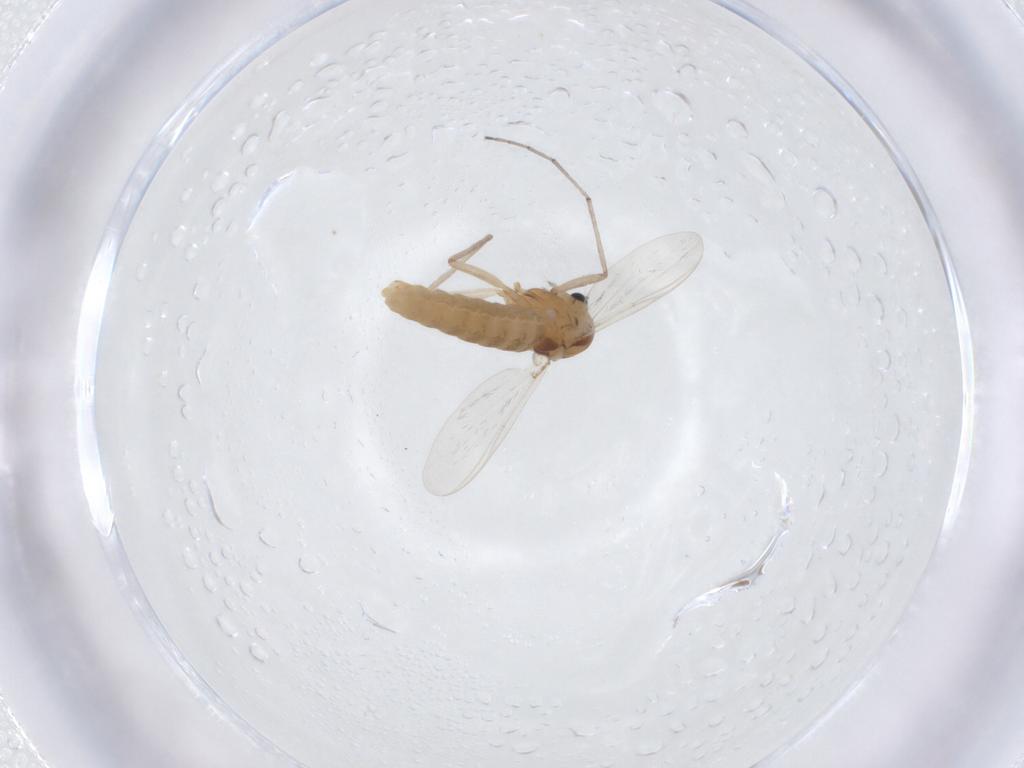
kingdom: Animalia
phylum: Arthropoda
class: Insecta
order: Diptera
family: Chironomidae
